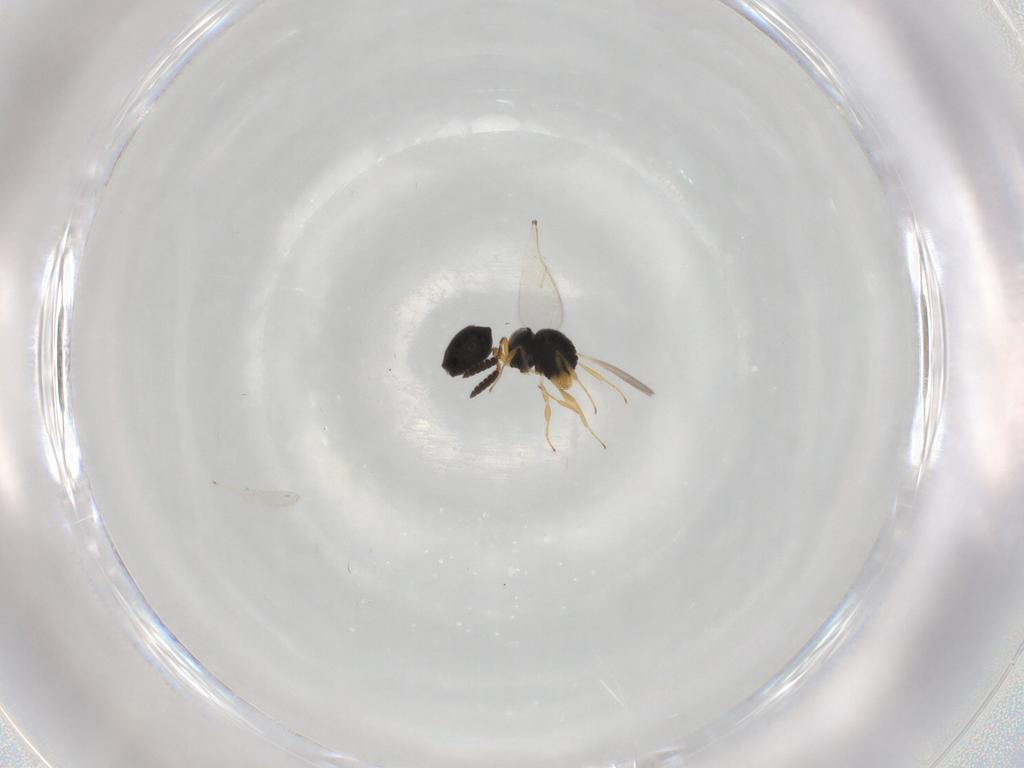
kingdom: Animalia
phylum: Arthropoda
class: Insecta
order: Hymenoptera
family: Scelionidae
